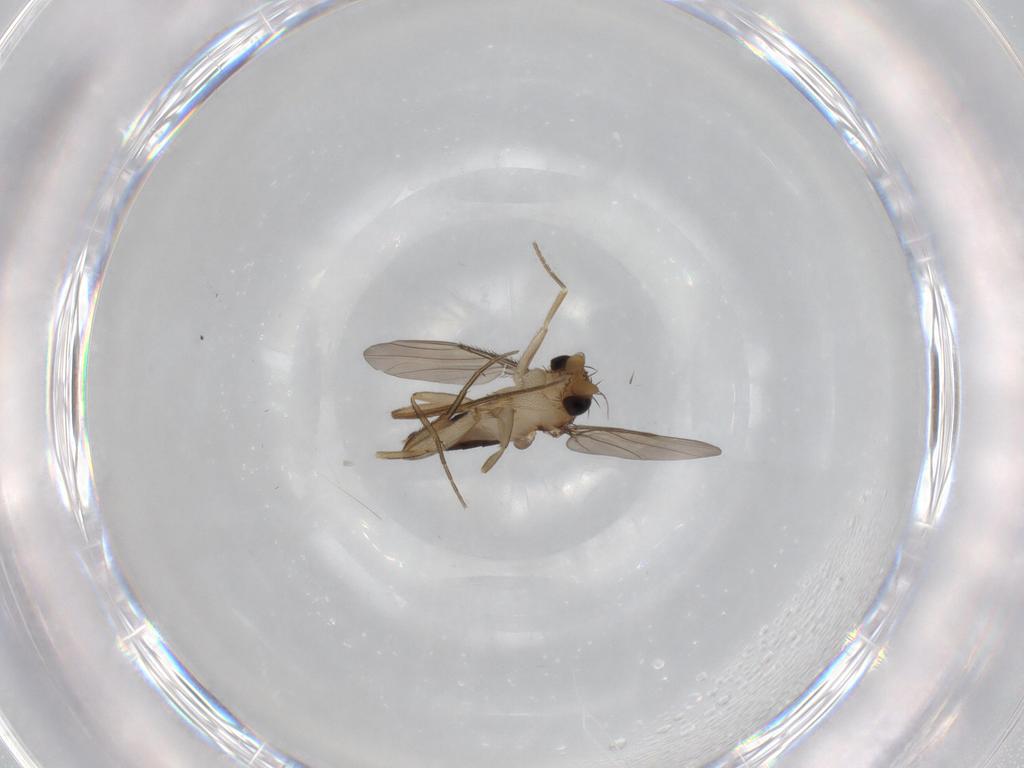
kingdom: Animalia
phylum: Arthropoda
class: Insecta
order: Diptera
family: Phoridae
